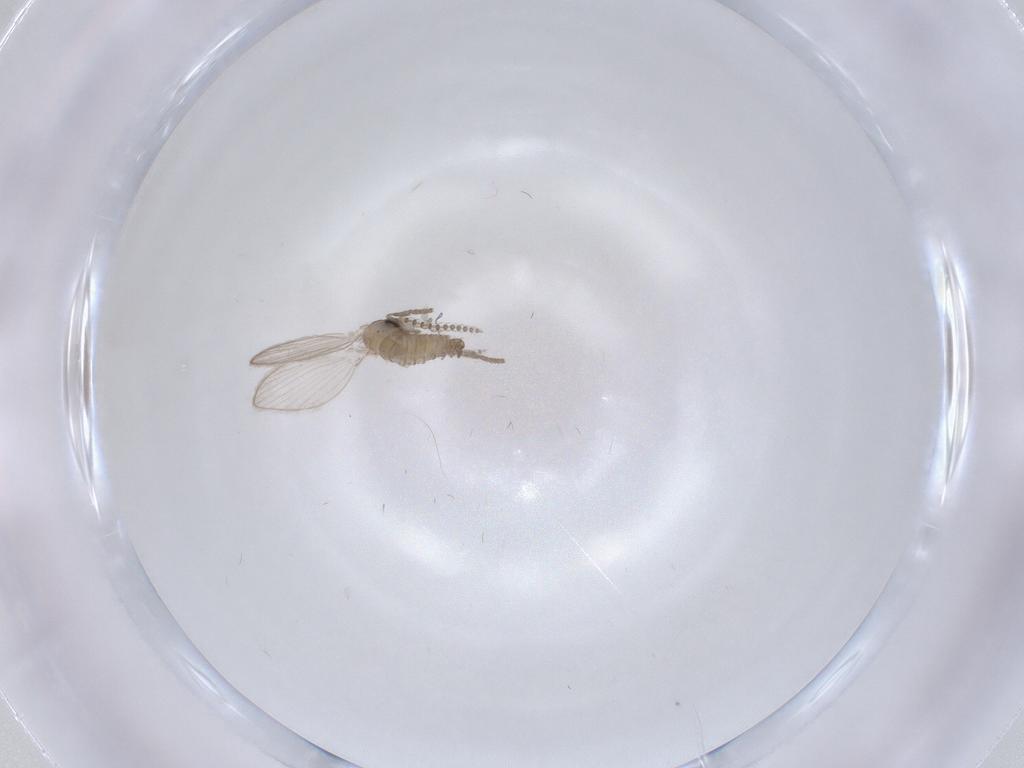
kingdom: Animalia
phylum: Arthropoda
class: Insecta
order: Diptera
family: Psychodidae
